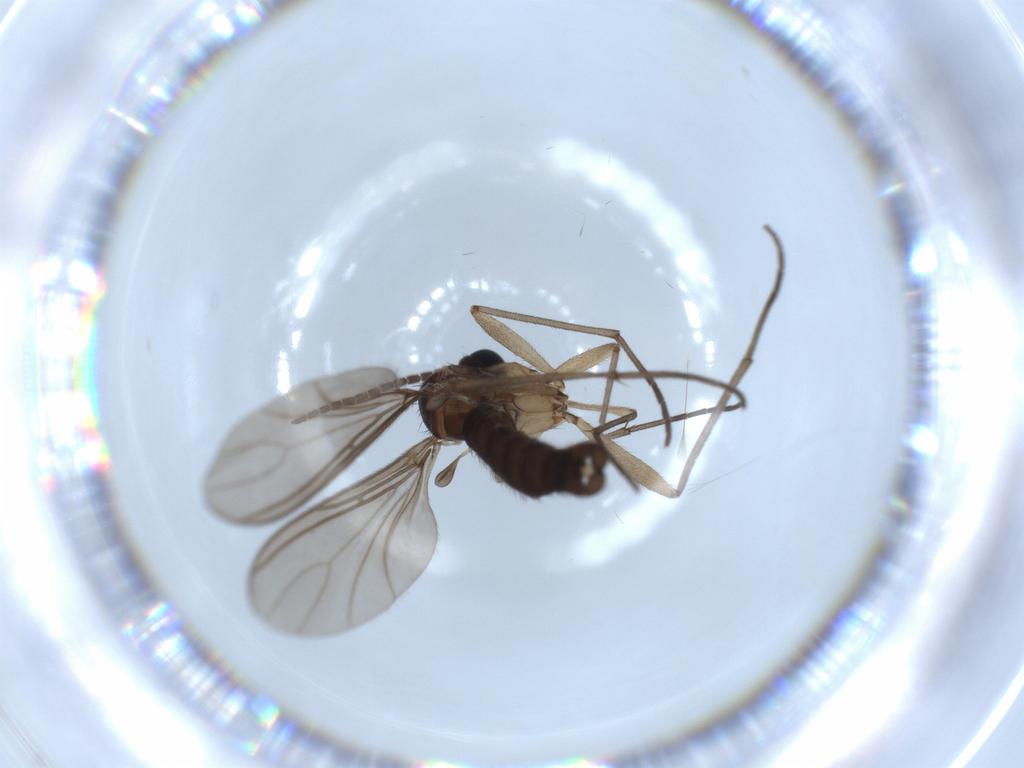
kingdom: Animalia
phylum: Arthropoda
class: Insecta
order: Diptera
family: Sciaridae
